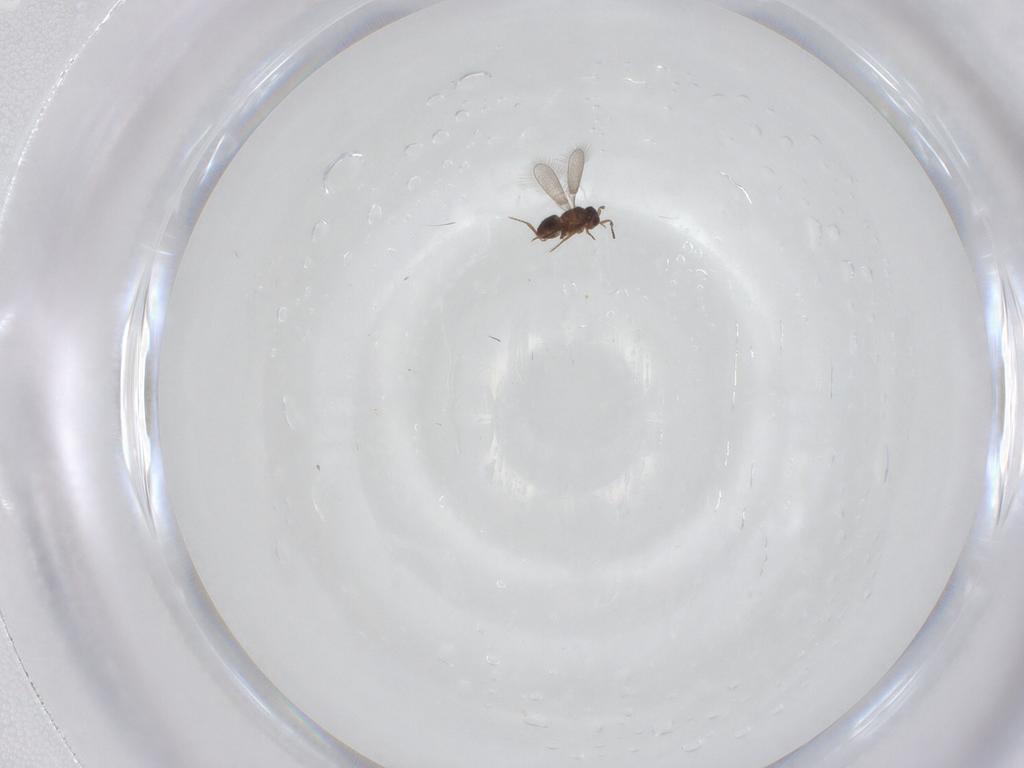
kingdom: Animalia
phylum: Arthropoda
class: Insecta
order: Hymenoptera
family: Mymaridae
